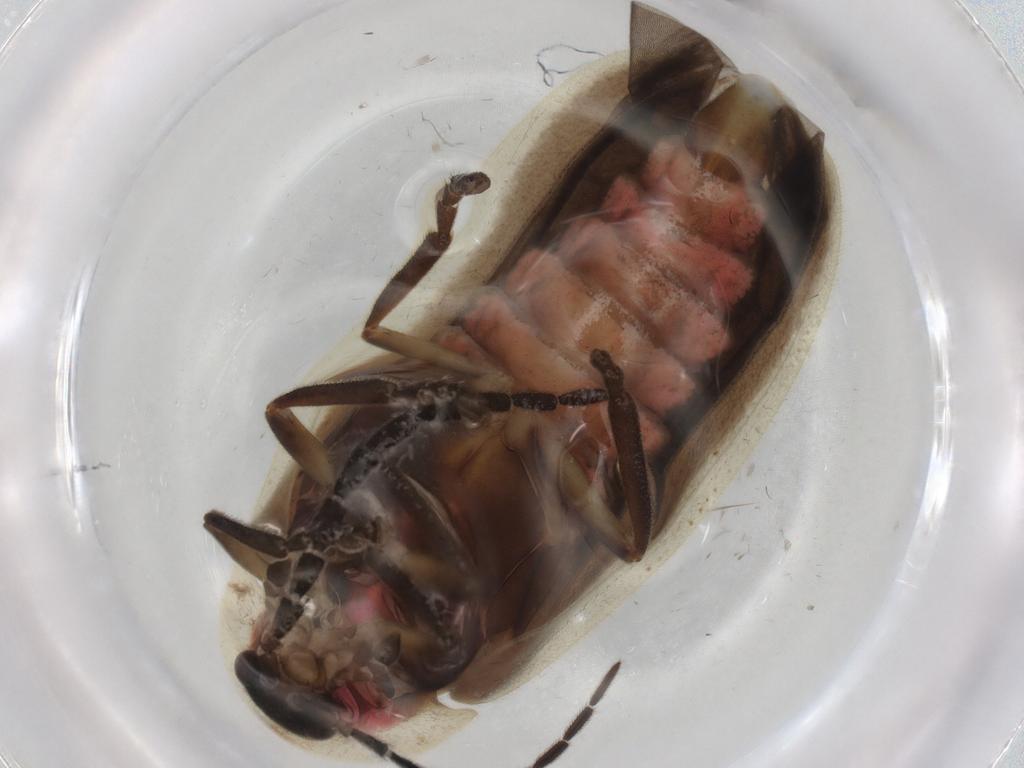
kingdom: Animalia
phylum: Arthropoda
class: Insecta
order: Coleoptera
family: Lampyridae
